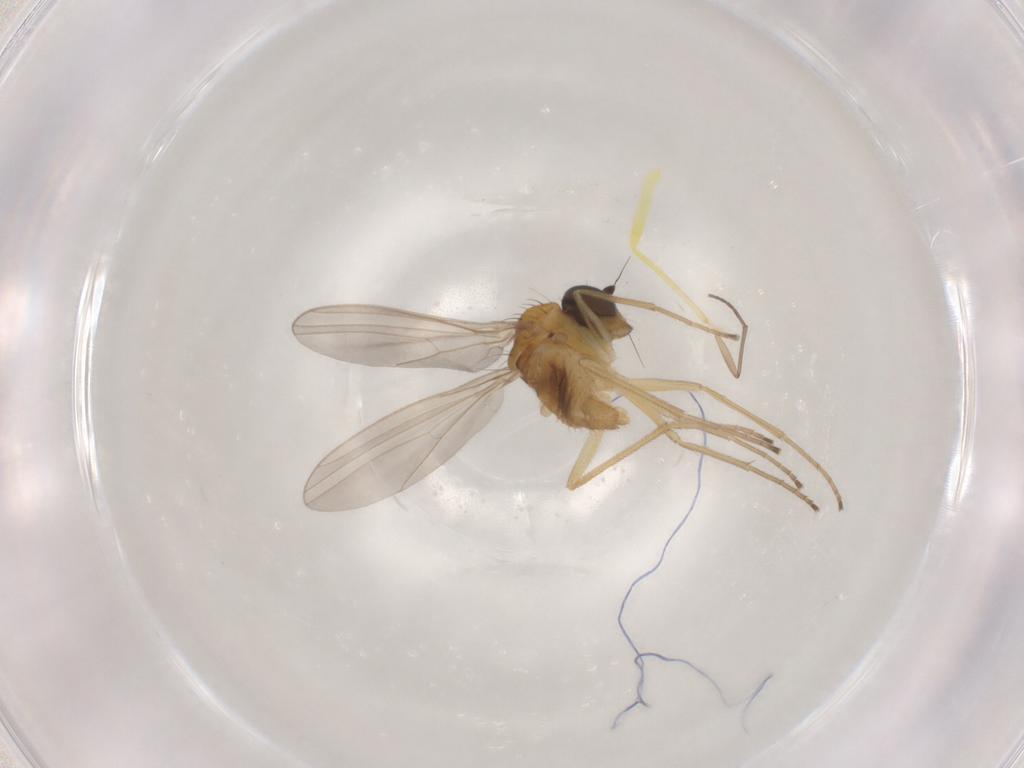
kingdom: Animalia
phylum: Arthropoda
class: Insecta
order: Diptera
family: Dolichopodidae
